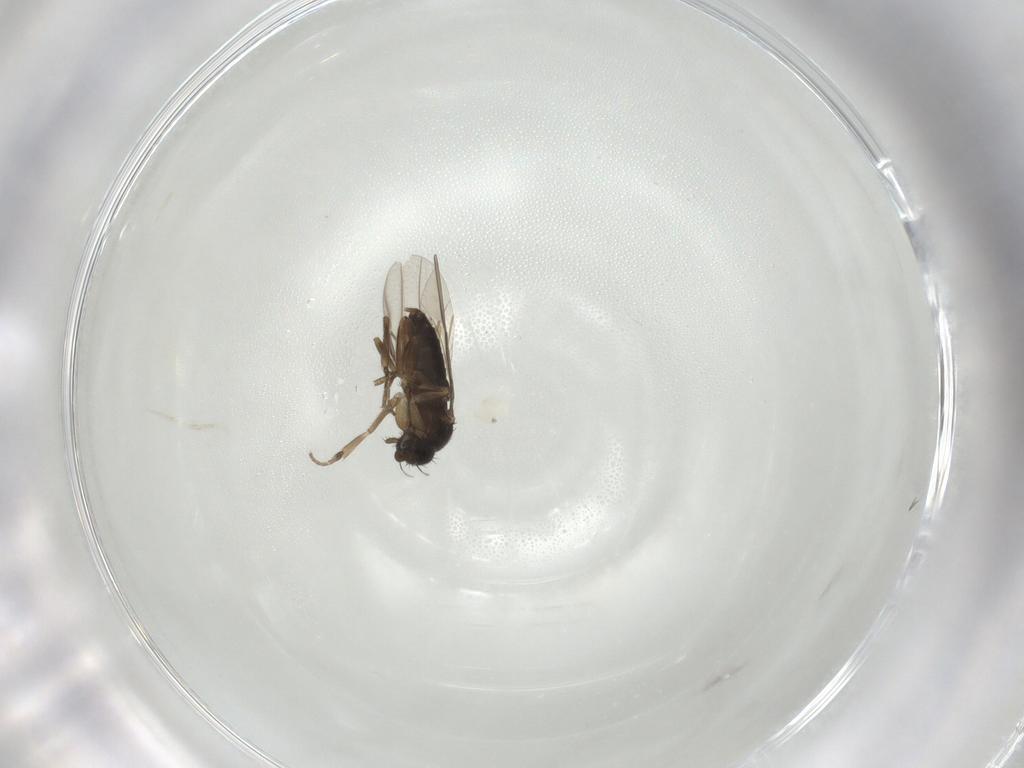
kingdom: Animalia
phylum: Arthropoda
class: Insecta
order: Diptera
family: Phoridae
